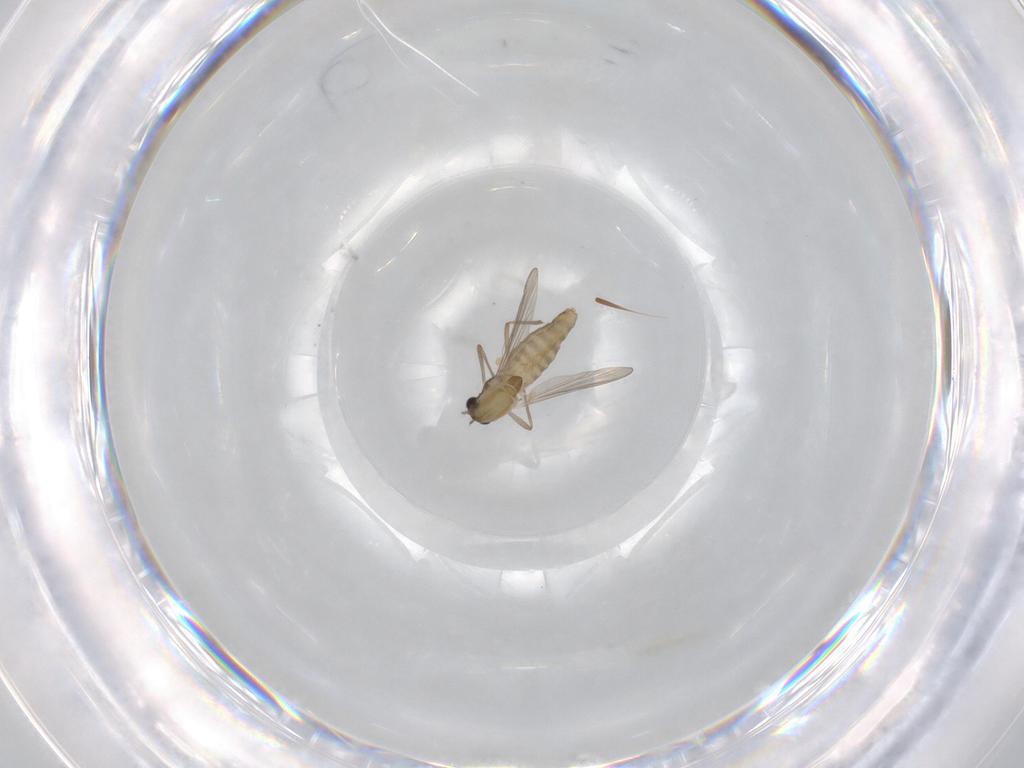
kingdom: Animalia
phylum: Arthropoda
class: Insecta
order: Diptera
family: Chironomidae
